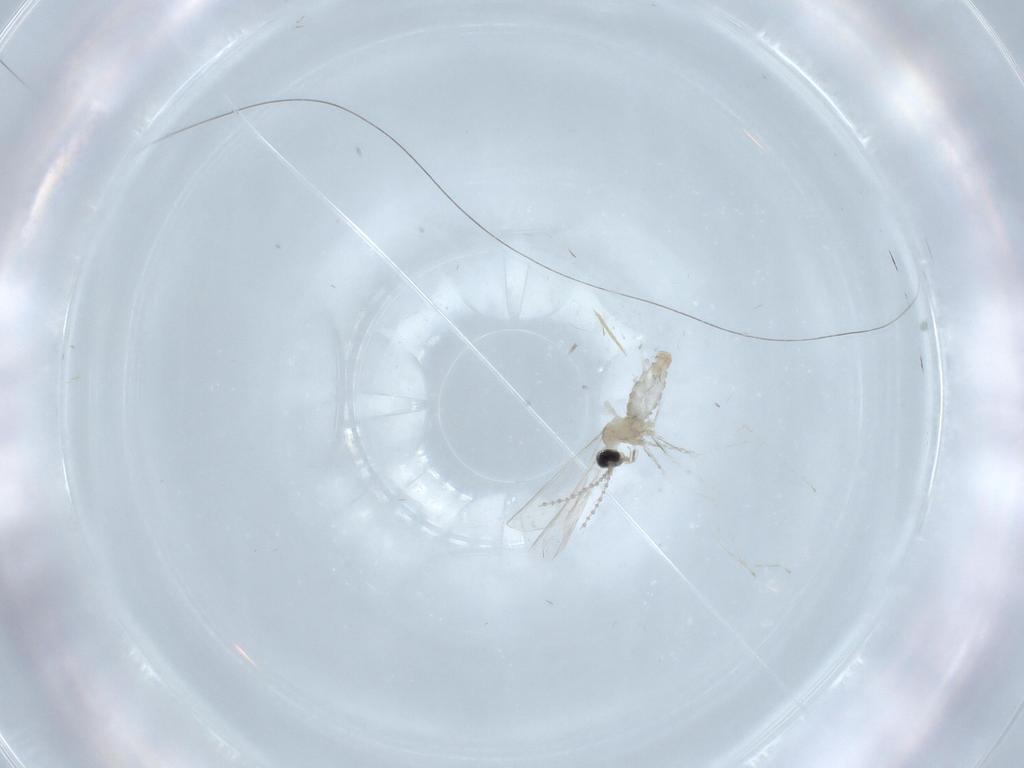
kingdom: Animalia
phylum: Arthropoda
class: Insecta
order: Diptera
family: Cecidomyiidae
